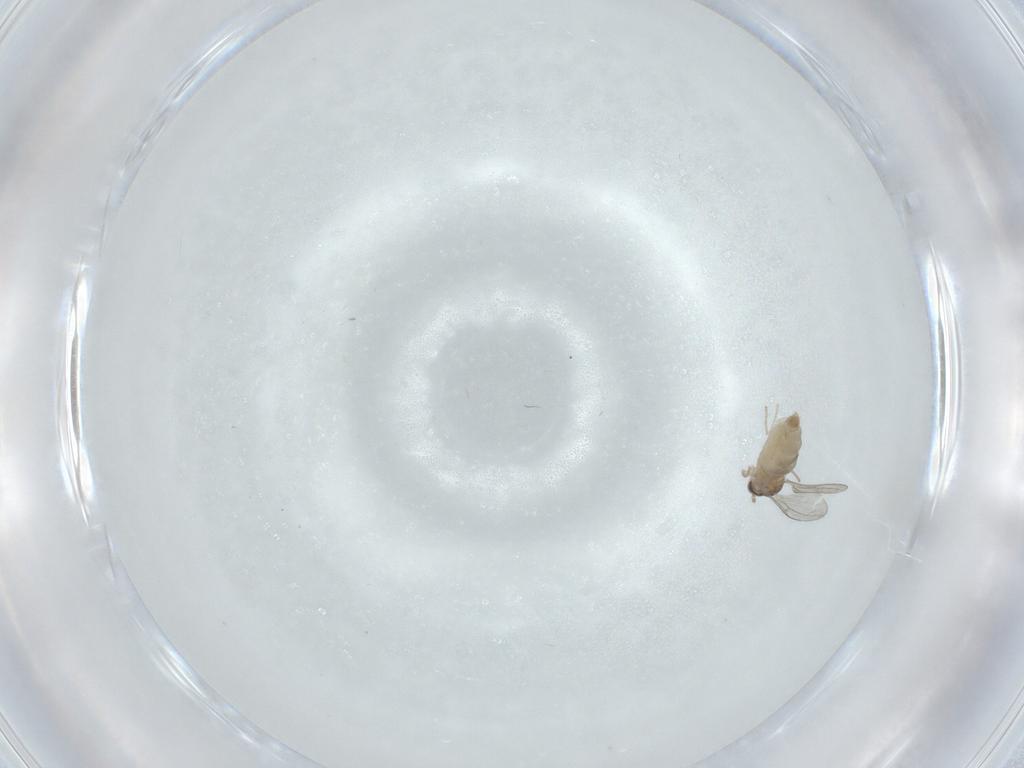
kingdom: Animalia
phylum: Arthropoda
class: Insecta
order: Diptera
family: Cecidomyiidae
